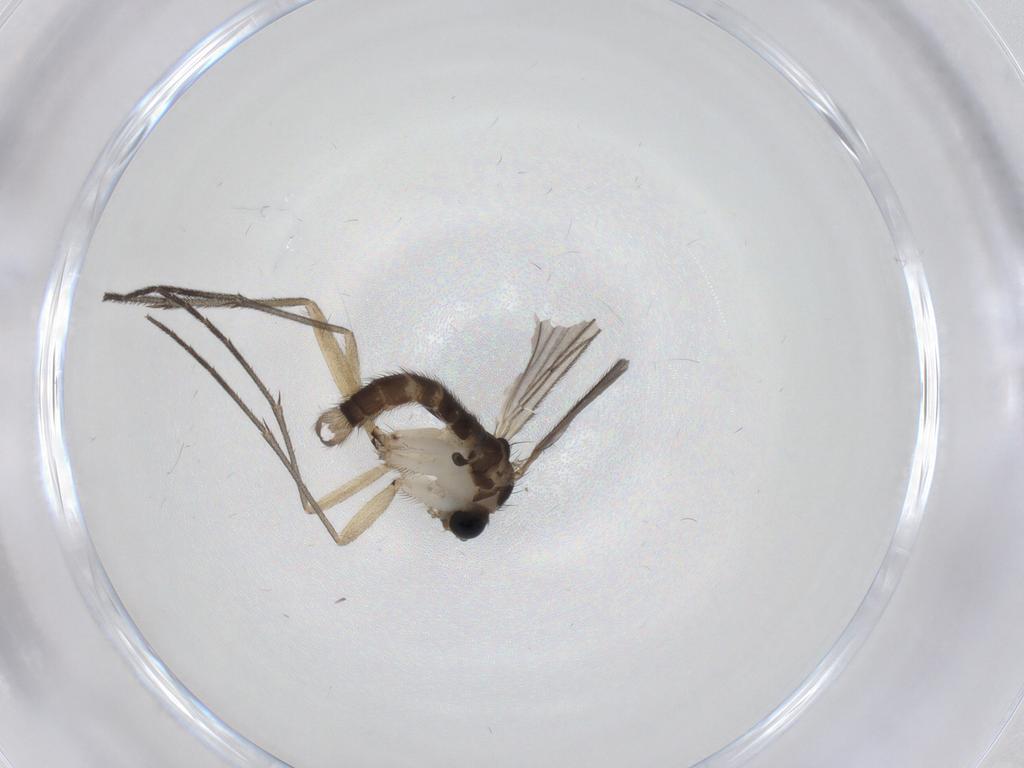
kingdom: Animalia
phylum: Arthropoda
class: Insecta
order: Diptera
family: Sciaridae
